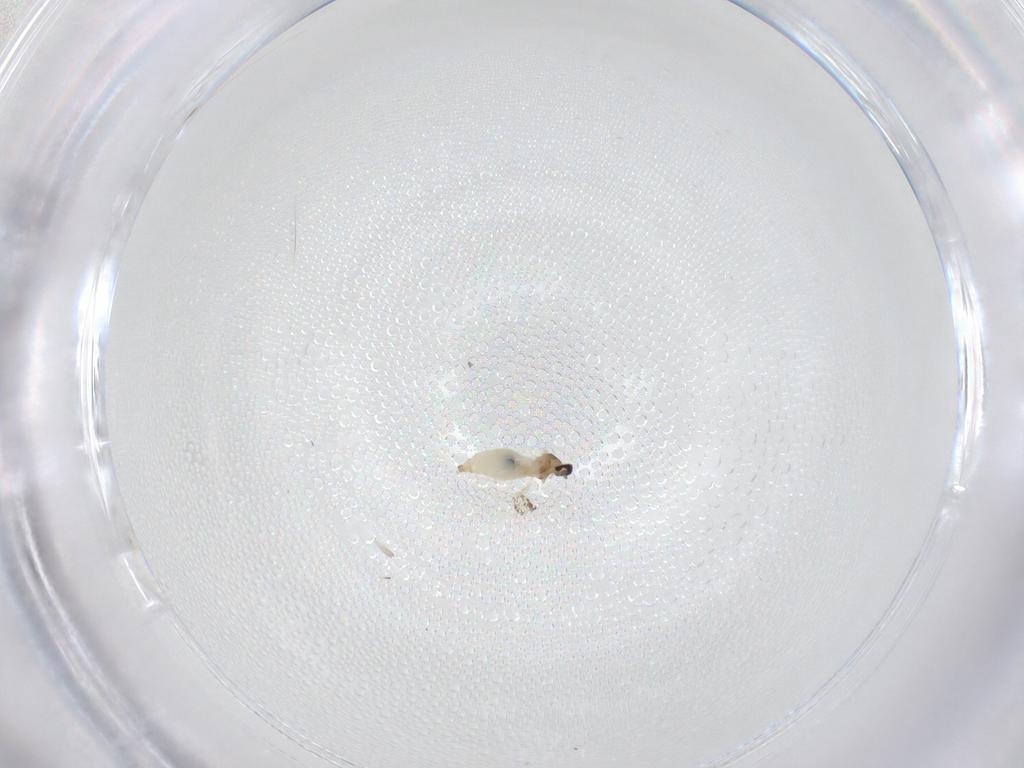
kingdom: Animalia
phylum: Arthropoda
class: Insecta
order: Diptera
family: Cecidomyiidae
